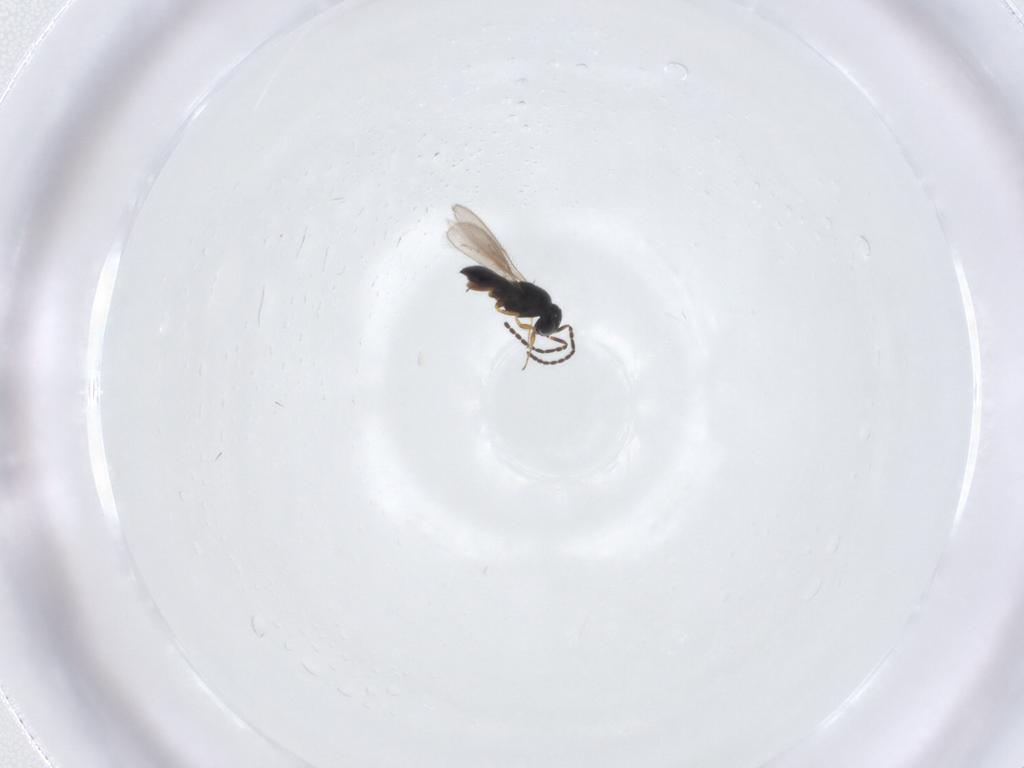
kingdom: Animalia
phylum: Arthropoda
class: Insecta
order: Hymenoptera
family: Scelionidae
